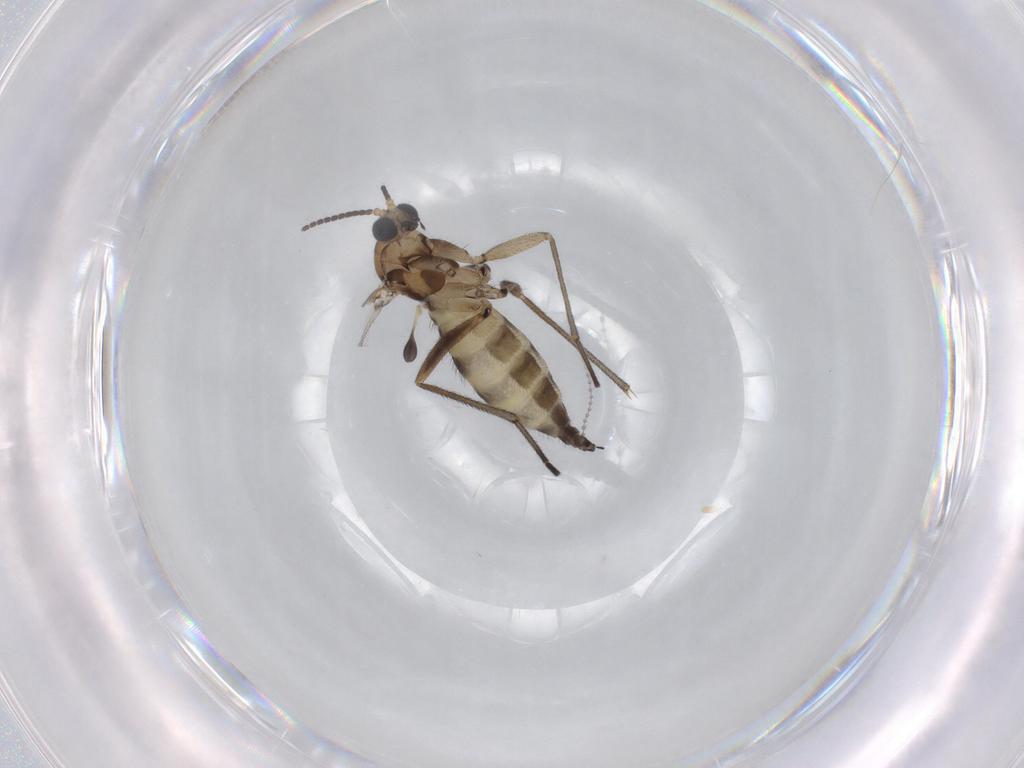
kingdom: Animalia
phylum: Arthropoda
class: Insecta
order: Diptera
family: Sciaridae
